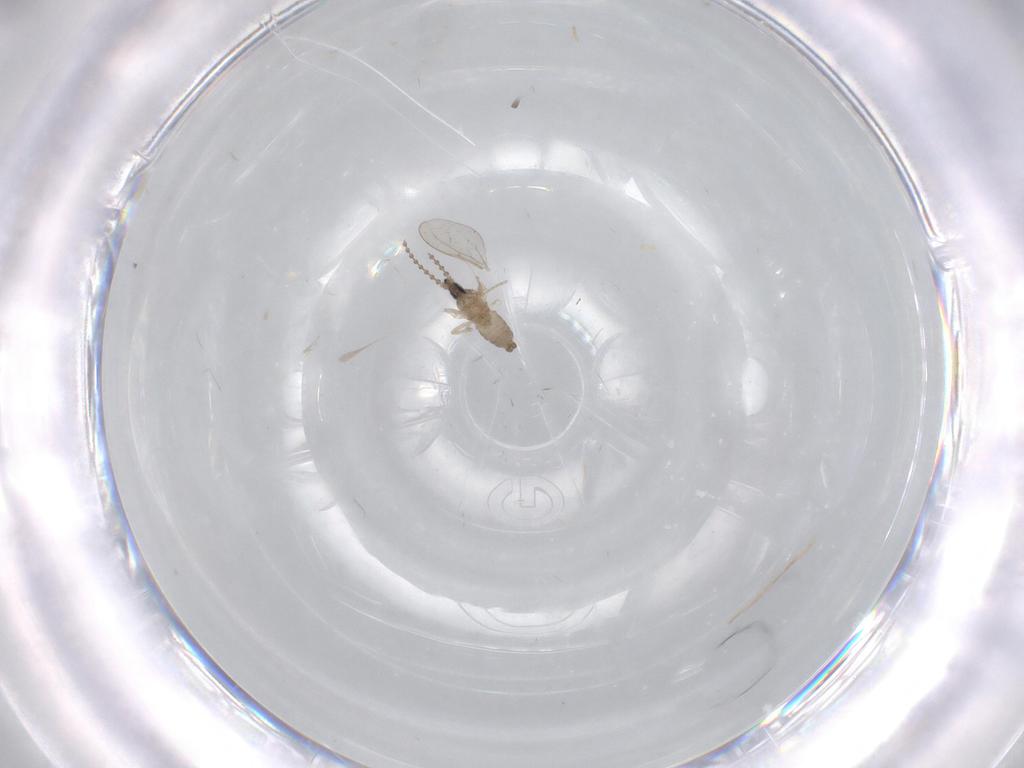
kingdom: Animalia
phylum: Arthropoda
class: Insecta
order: Diptera
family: Cecidomyiidae
